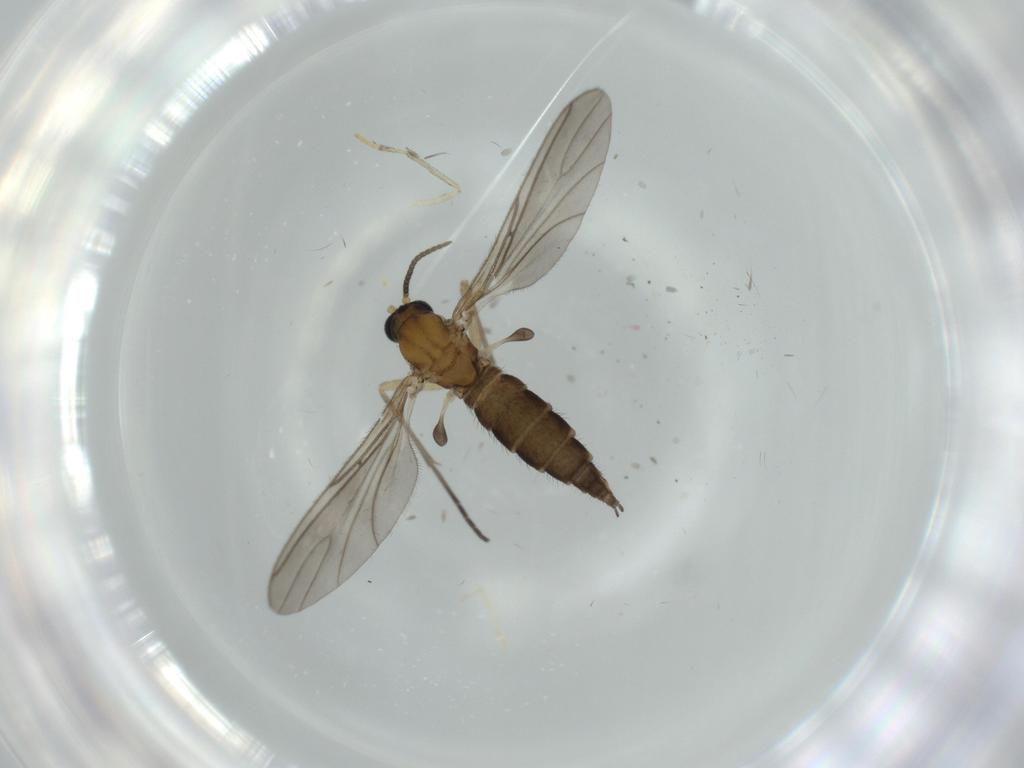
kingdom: Animalia
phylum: Arthropoda
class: Insecta
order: Diptera
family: Sciaridae
